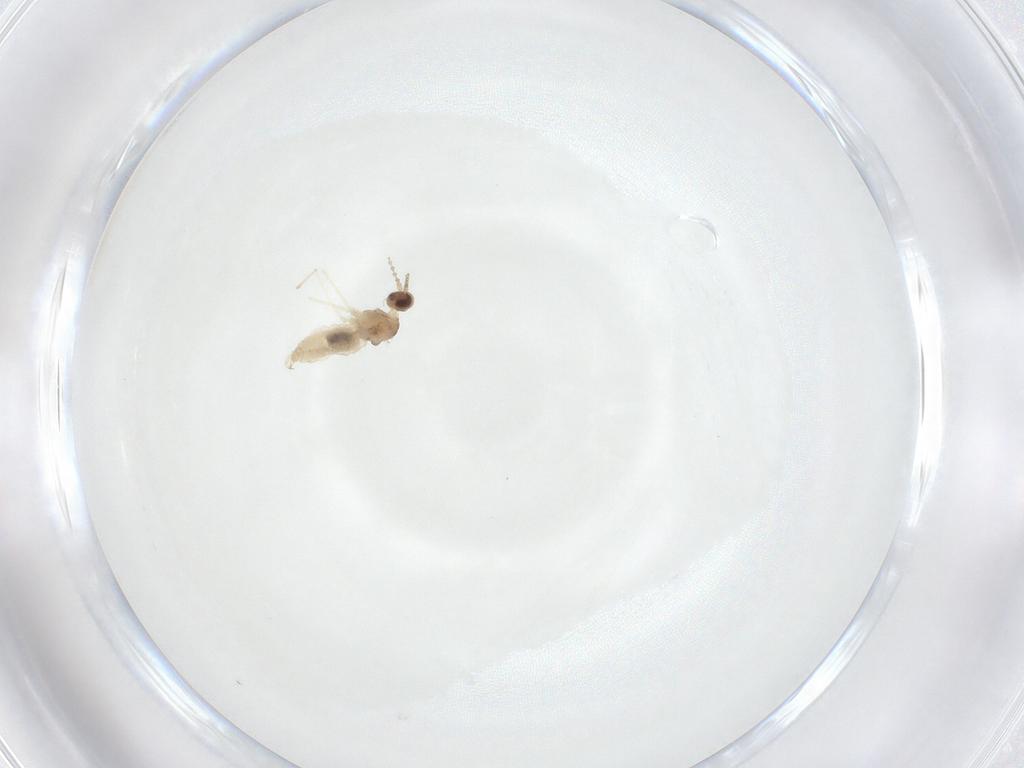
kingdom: Animalia
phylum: Arthropoda
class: Insecta
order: Diptera
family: Cecidomyiidae
